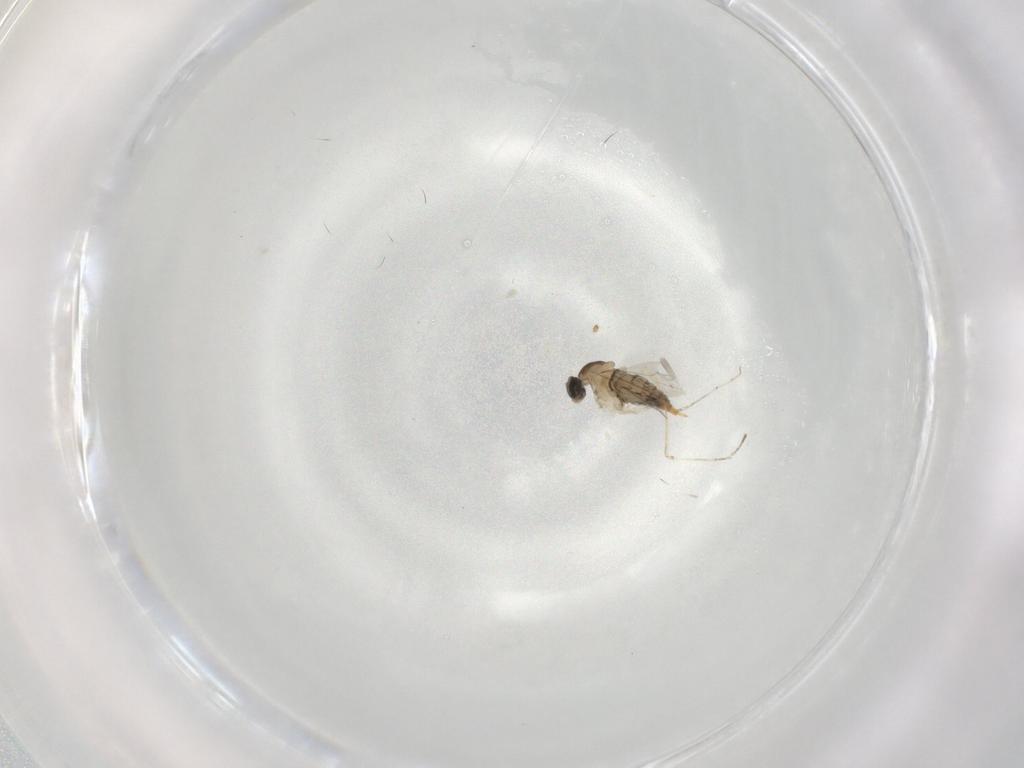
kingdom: Animalia
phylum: Arthropoda
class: Insecta
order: Diptera
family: Cecidomyiidae
